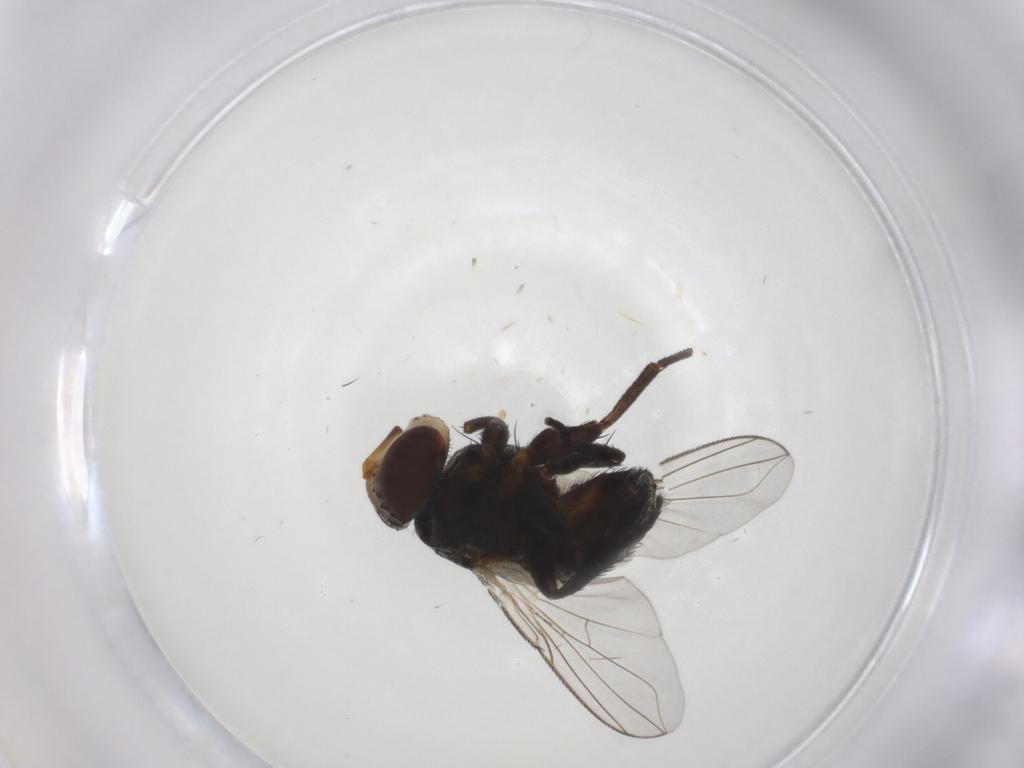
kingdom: Animalia
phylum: Arthropoda
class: Insecta
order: Diptera
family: Ceratopogonidae
